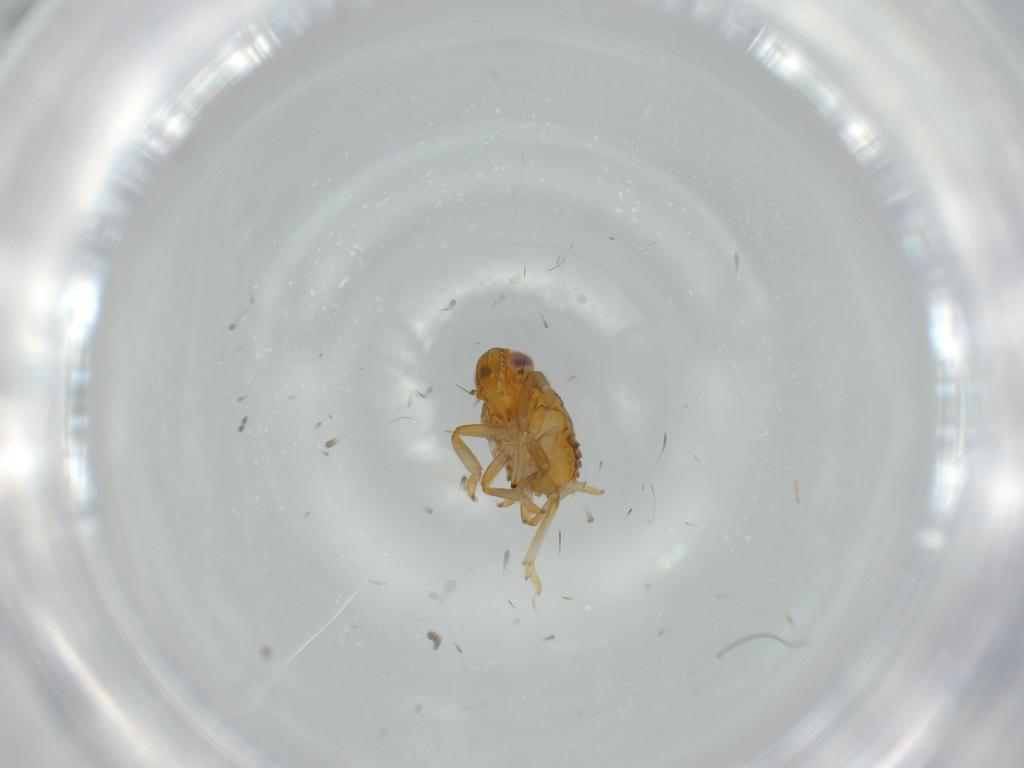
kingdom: Animalia
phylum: Arthropoda
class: Insecta
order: Hemiptera
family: Issidae
